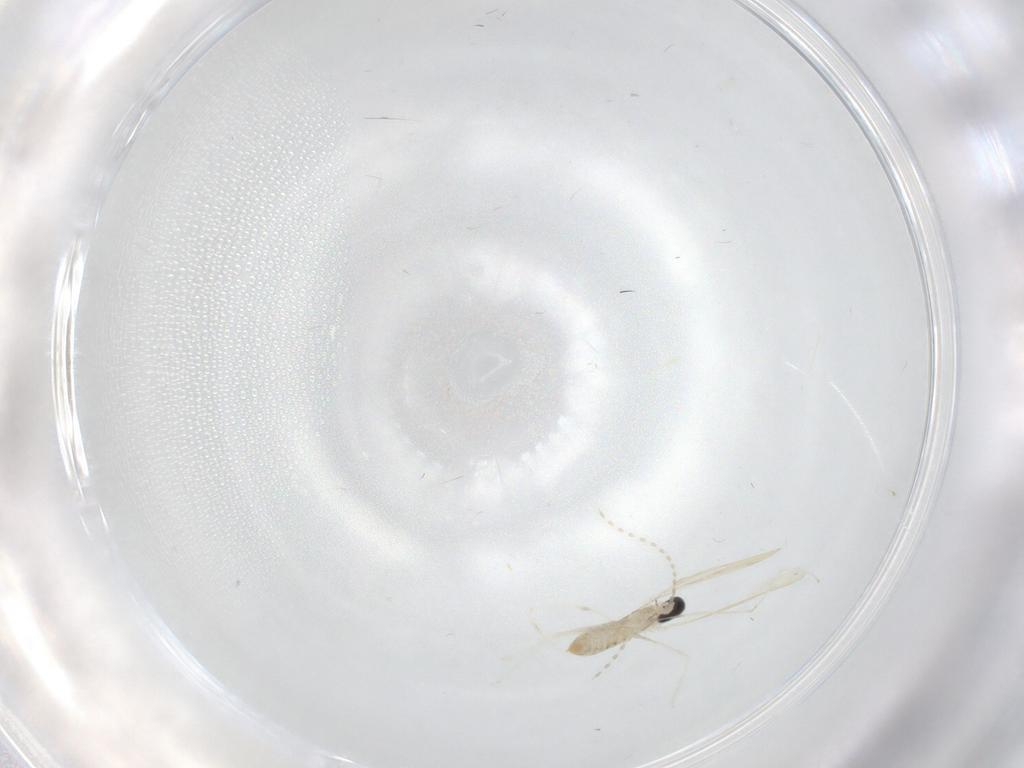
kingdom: Animalia
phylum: Arthropoda
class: Insecta
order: Diptera
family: Cecidomyiidae
